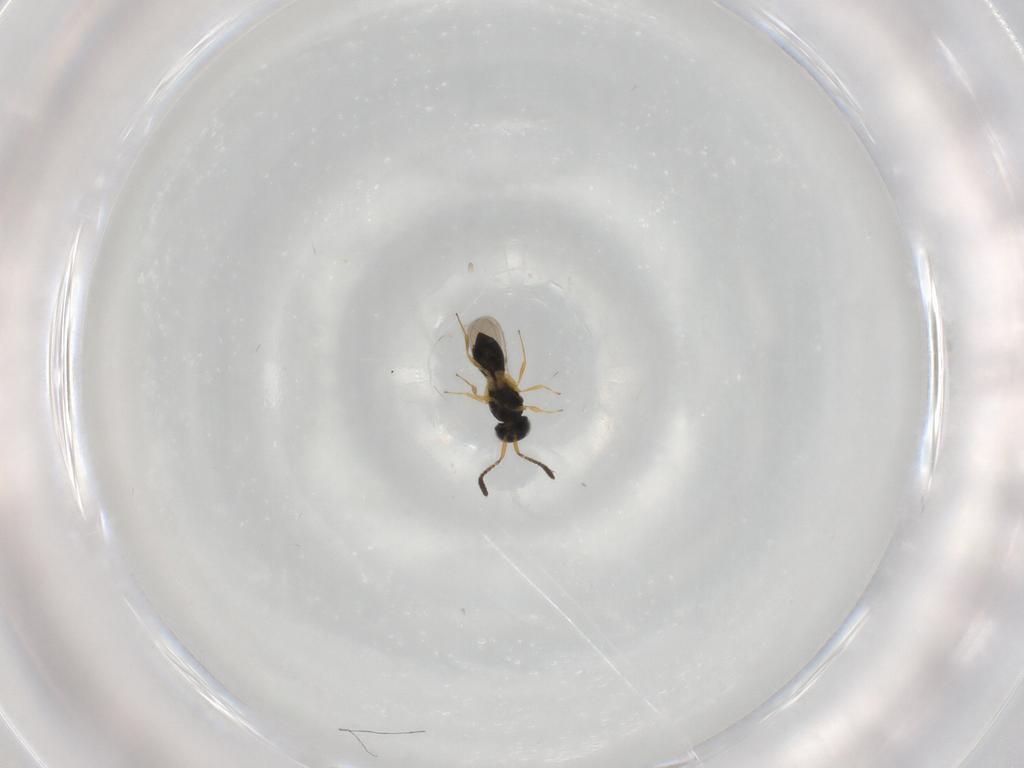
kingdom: Animalia
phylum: Arthropoda
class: Insecta
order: Hymenoptera
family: Scelionidae
